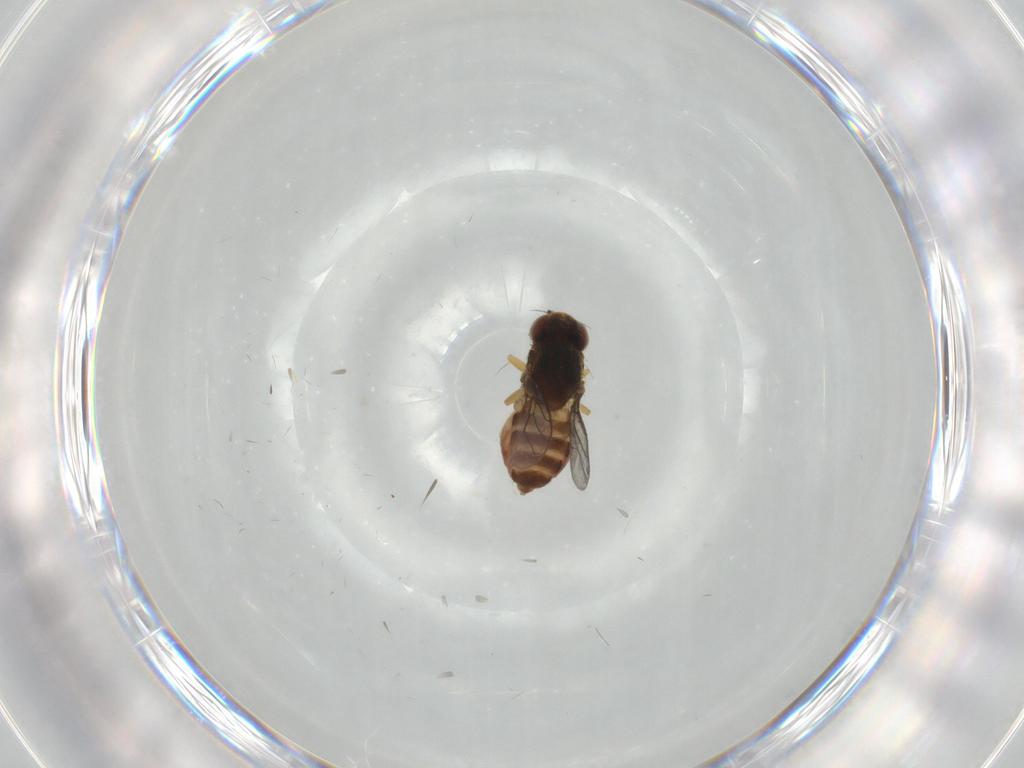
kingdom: Animalia
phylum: Arthropoda
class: Insecta
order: Diptera
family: Chloropidae
